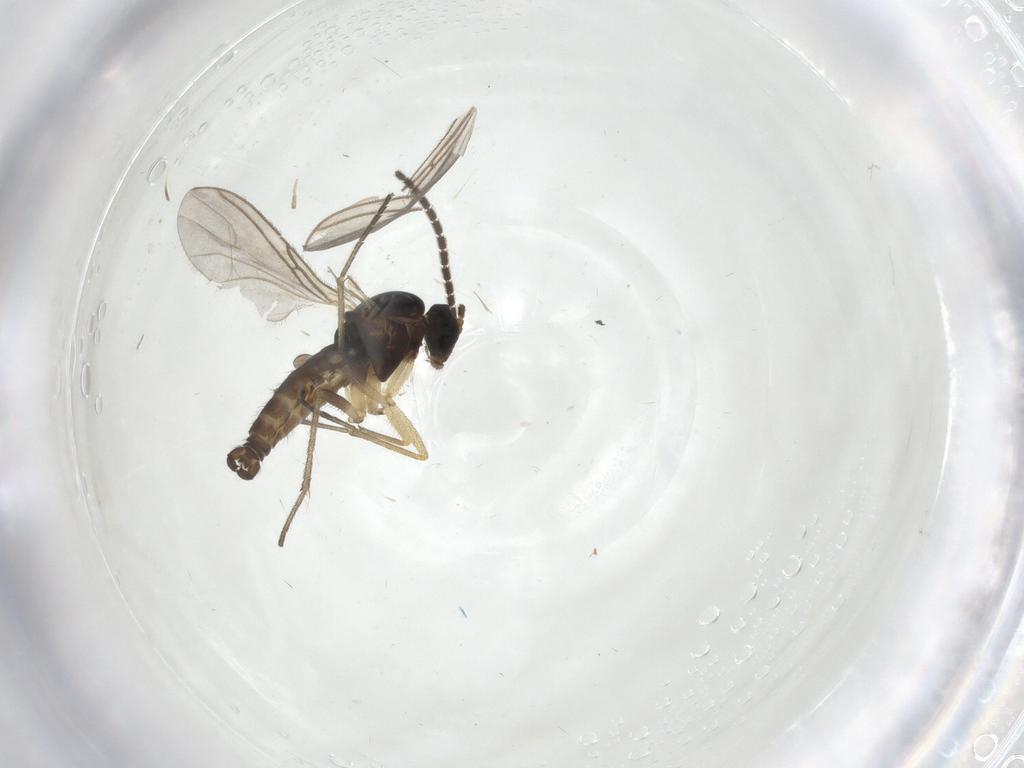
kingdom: Animalia
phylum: Arthropoda
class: Insecta
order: Diptera
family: Sciaridae
